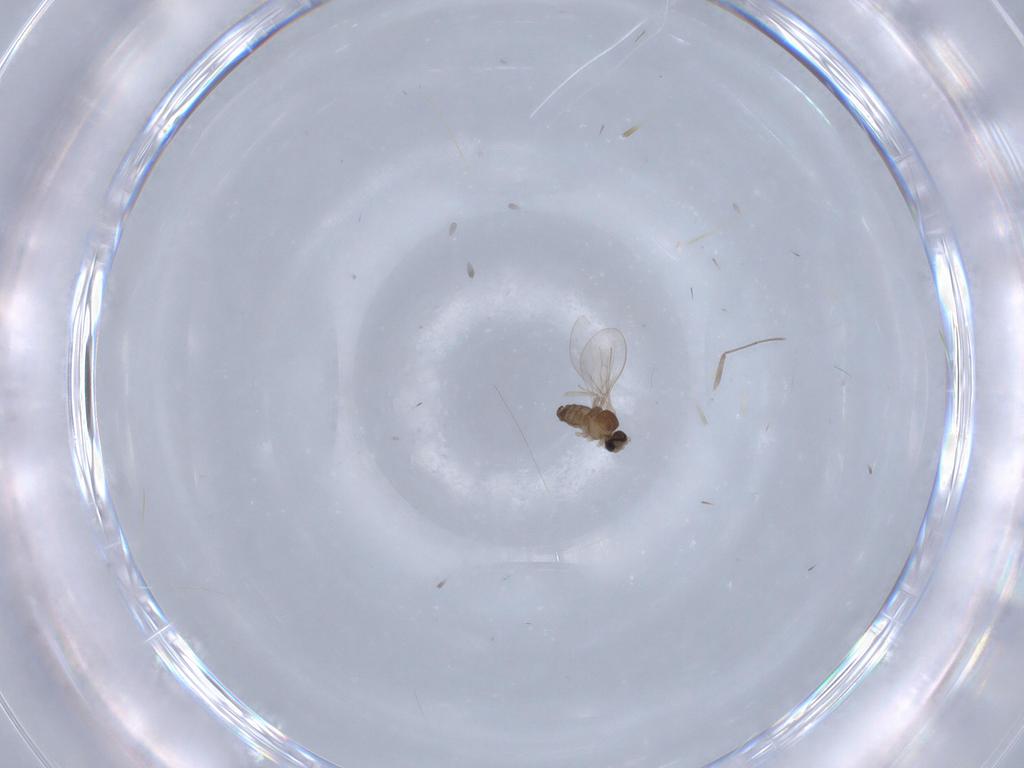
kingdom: Animalia
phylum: Arthropoda
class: Insecta
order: Diptera
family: Cecidomyiidae
